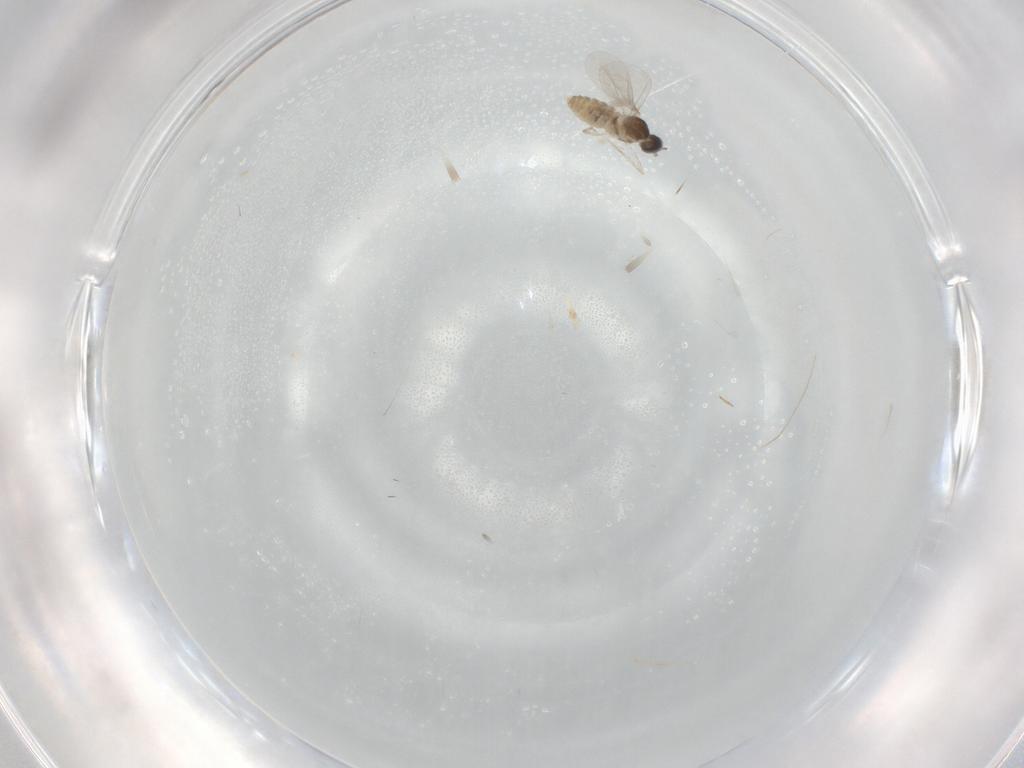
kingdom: Animalia
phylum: Arthropoda
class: Insecta
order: Diptera
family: Cecidomyiidae
